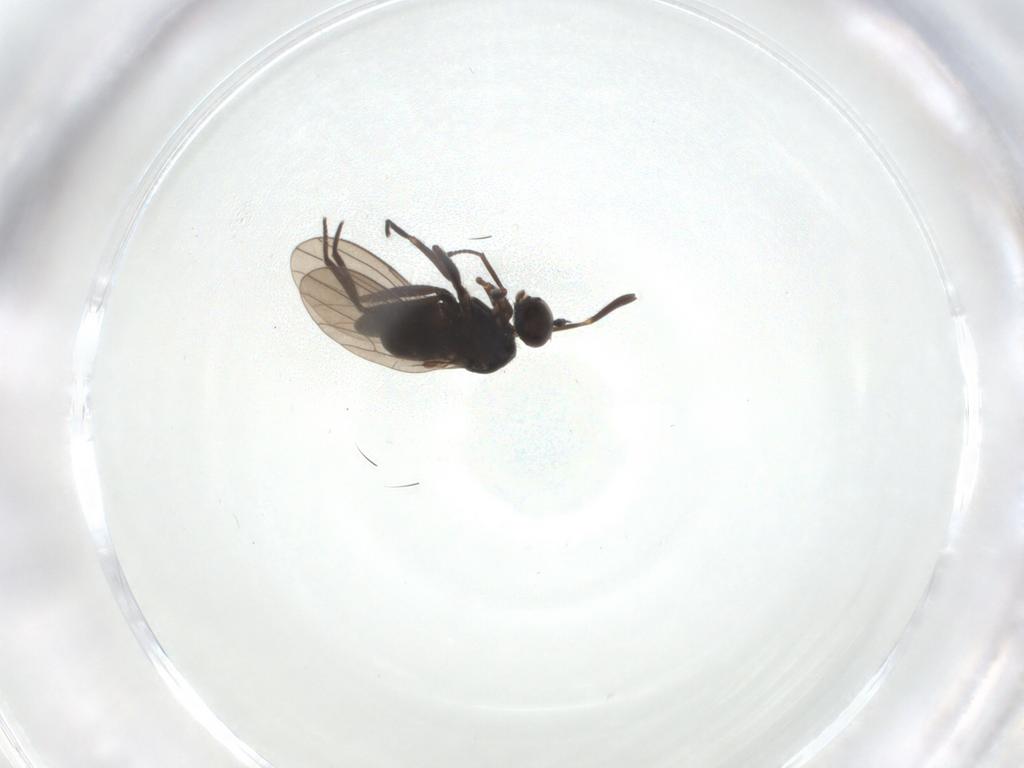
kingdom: Animalia
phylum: Arthropoda
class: Insecta
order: Diptera
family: Dolichopodidae
